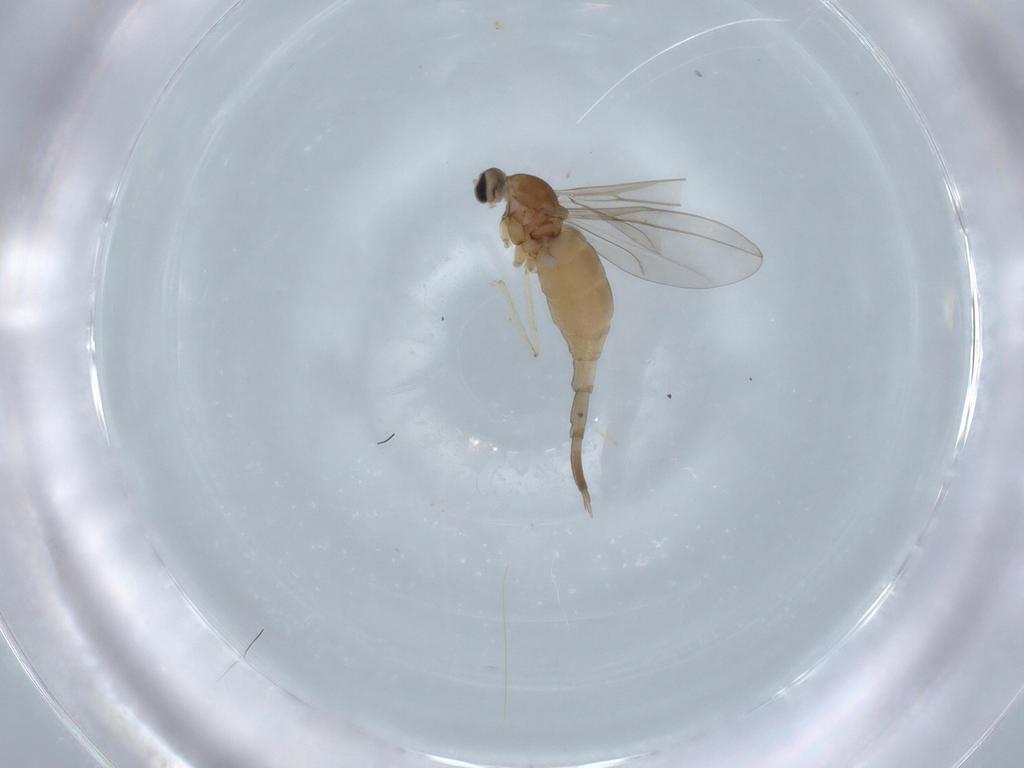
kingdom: Animalia
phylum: Arthropoda
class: Insecta
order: Diptera
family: Cecidomyiidae
